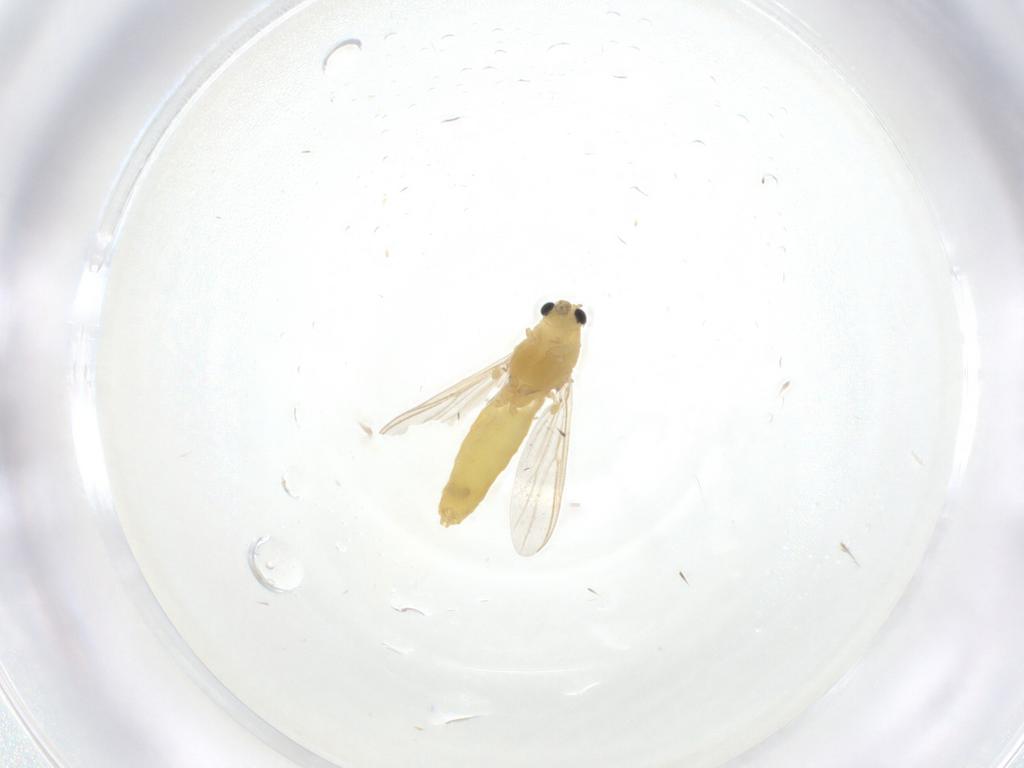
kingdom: Animalia
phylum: Arthropoda
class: Insecta
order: Diptera
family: Chironomidae
